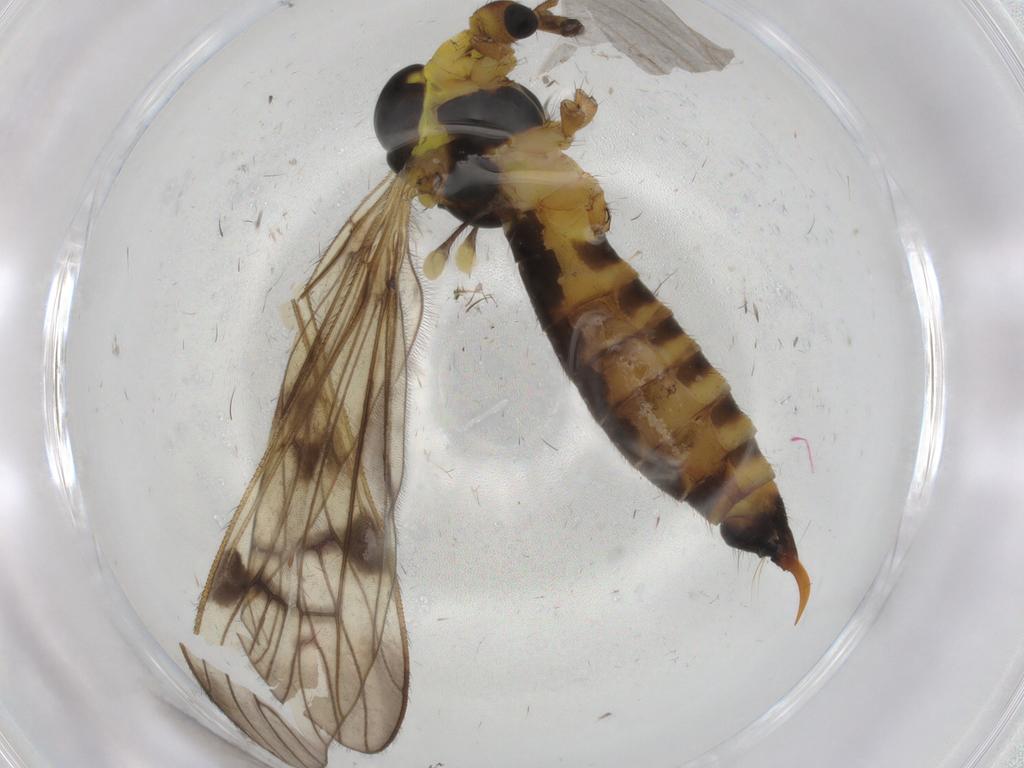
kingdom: Animalia
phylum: Arthropoda
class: Insecta
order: Diptera
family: Limoniidae
